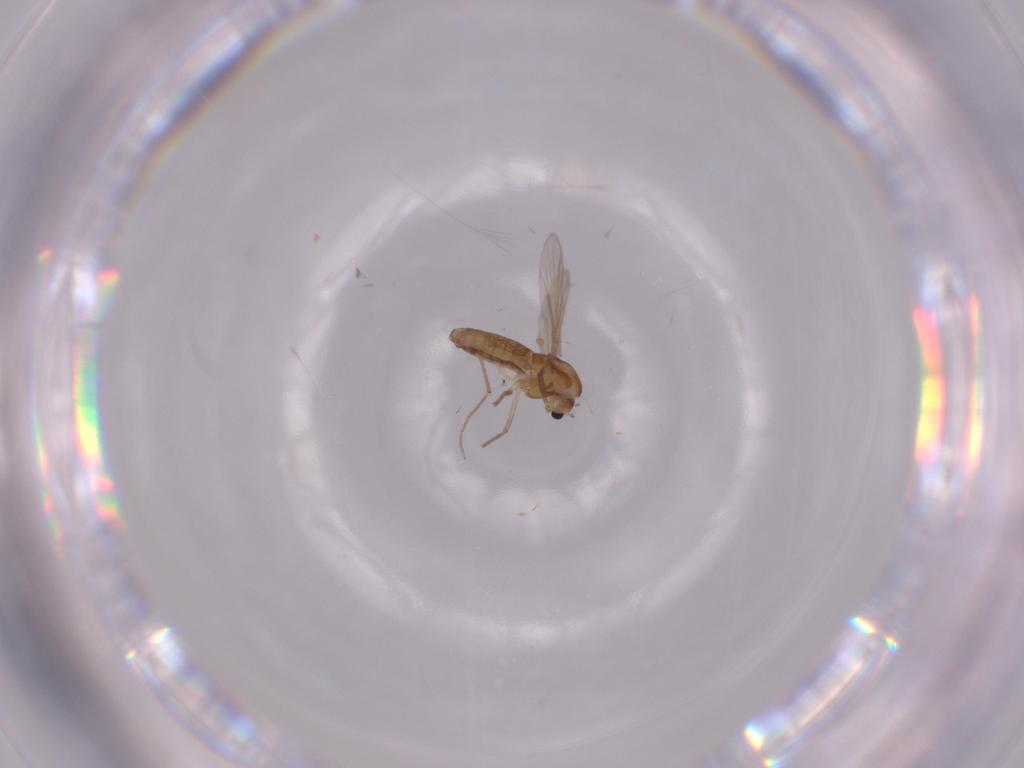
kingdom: Animalia
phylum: Arthropoda
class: Insecta
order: Diptera
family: Chironomidae
